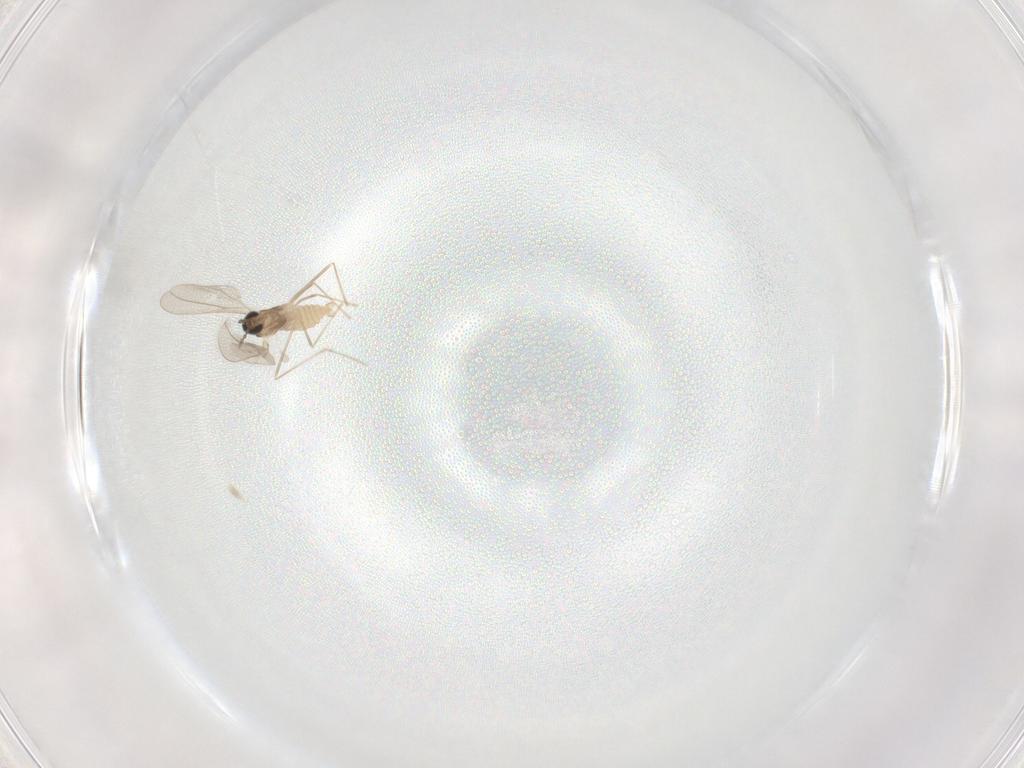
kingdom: Animalia
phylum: Arthropoda
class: Insecta
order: Diptera
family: Cecidomyiidae
